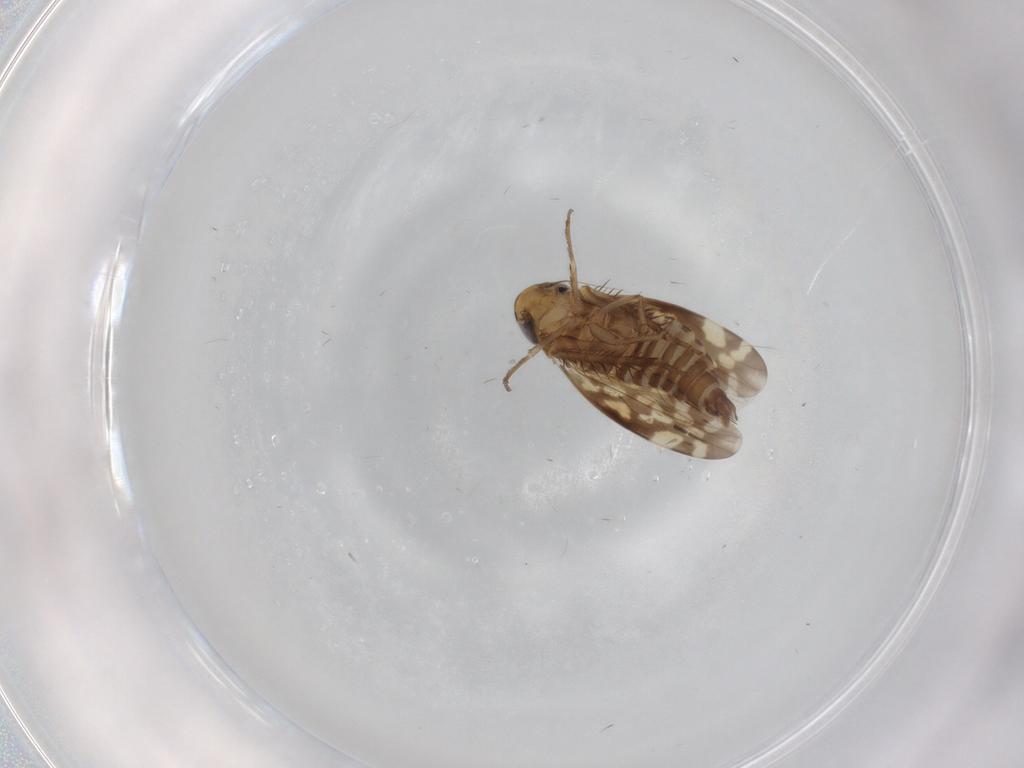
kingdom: Animalia
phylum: Arthropoda
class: Insecta
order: Hemiptera
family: Cicadellidae
